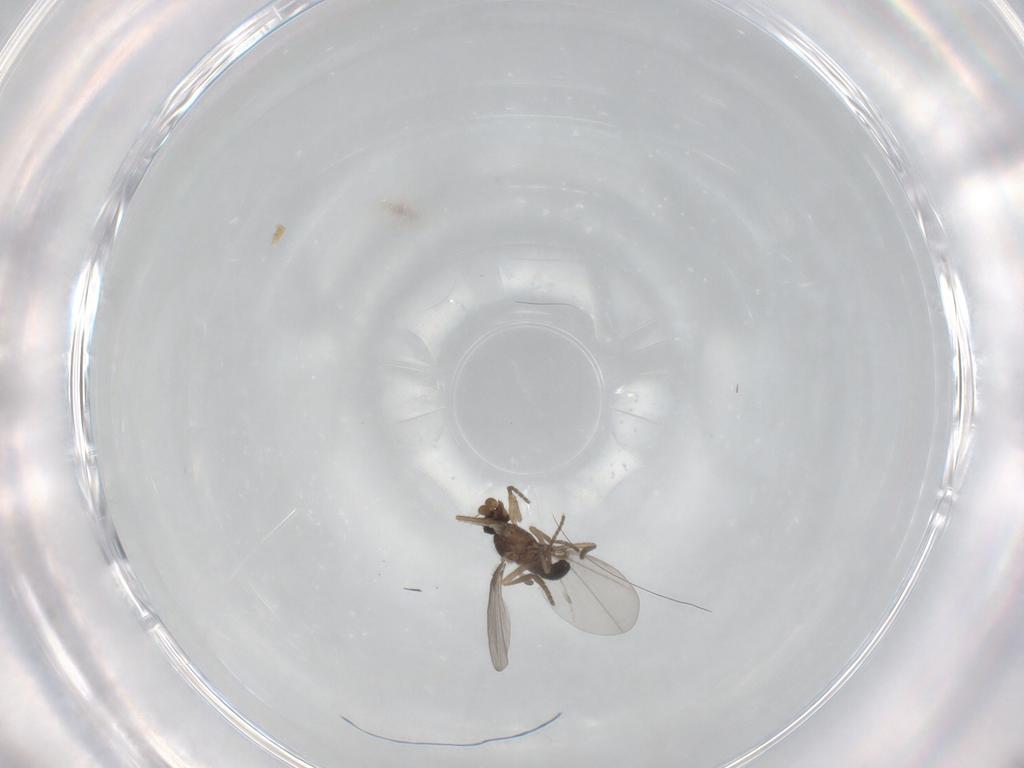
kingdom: Animalia
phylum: Arthropoda
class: Insecta
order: Diptera
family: Phoridae
